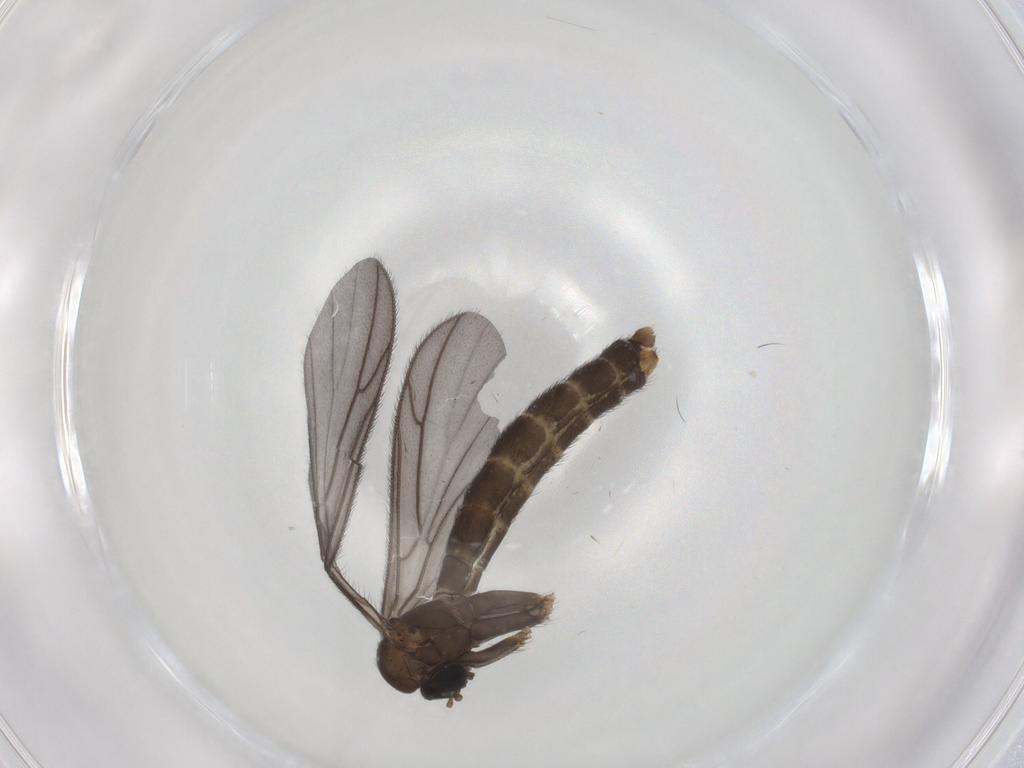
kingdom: Animalia
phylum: Arthropoda
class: Insecta
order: Diptera
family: Keroplatidae
